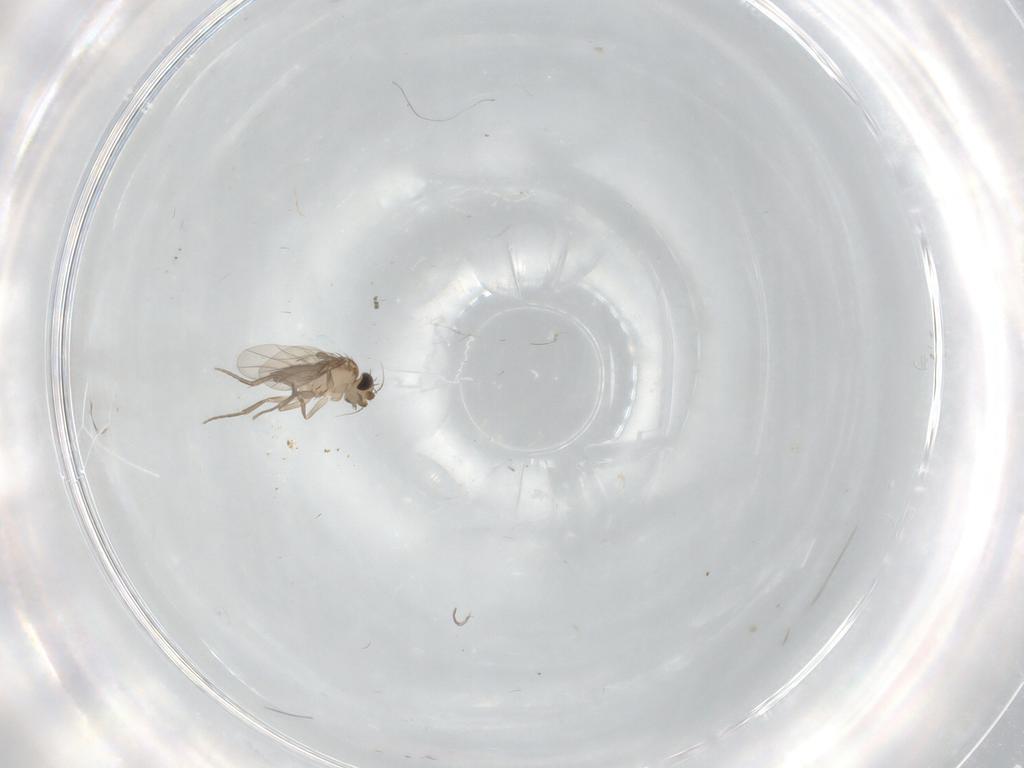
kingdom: Animalia
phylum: Arthropoda
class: Insecta
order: Diptera
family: Phoridae
